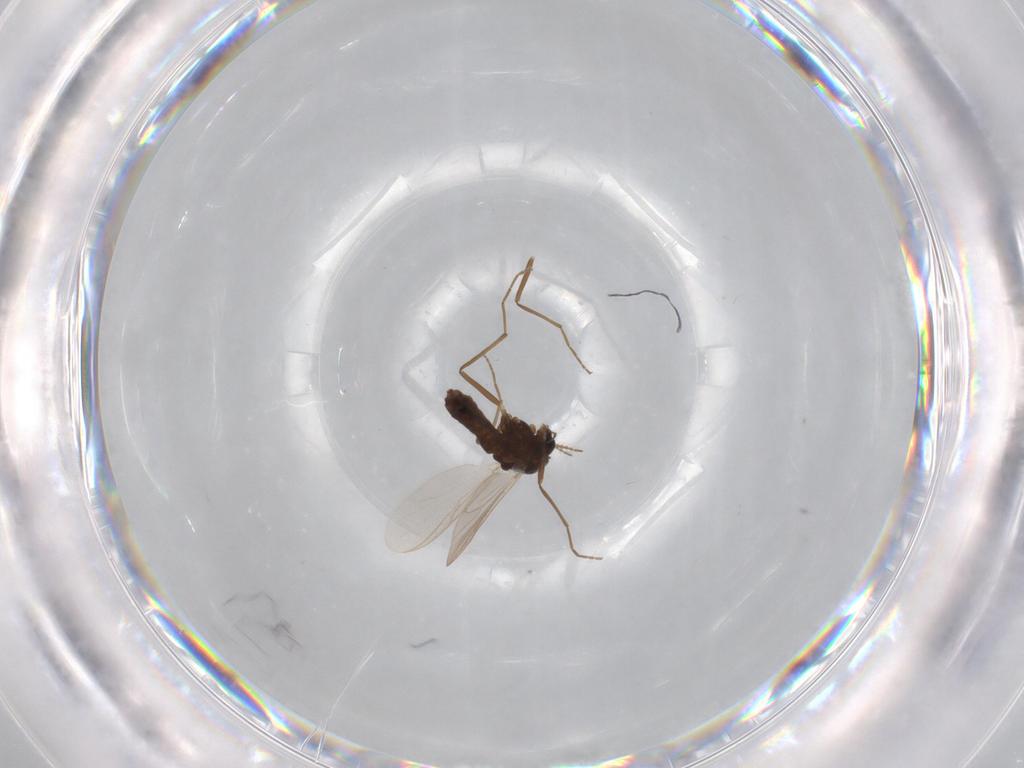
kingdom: Animalia
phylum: Arthropoda
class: Insecta
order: Diptera
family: Chironomidae
